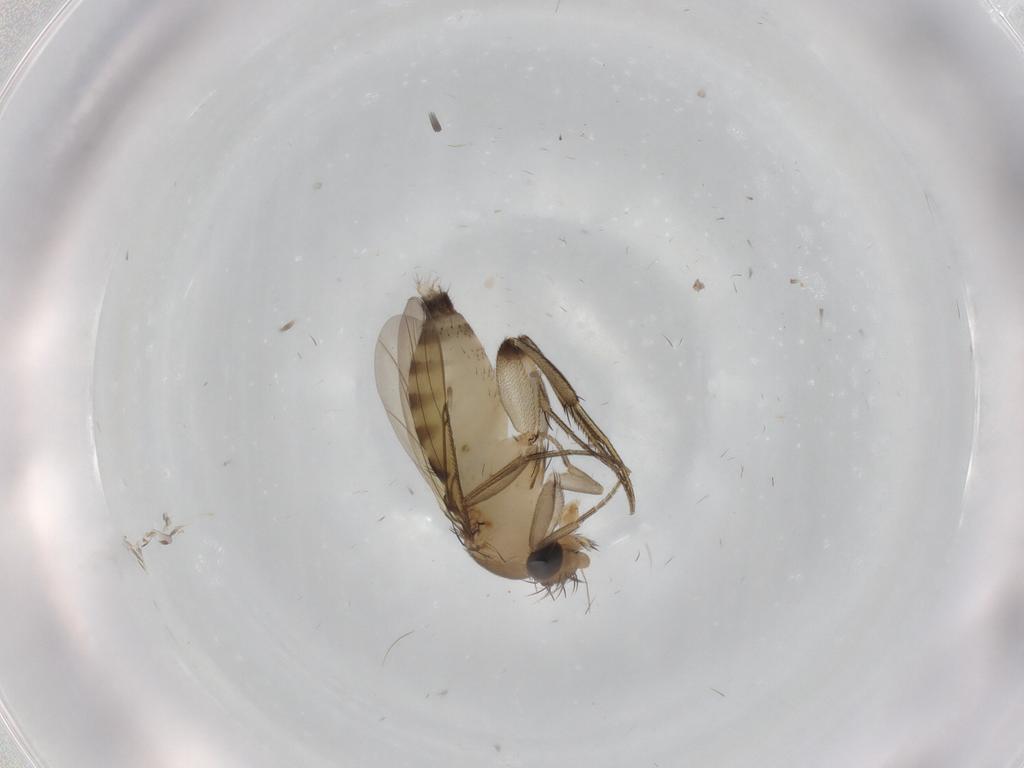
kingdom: Animalia
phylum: Arthropoda
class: Insecta
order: Diptera
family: Phoridae
